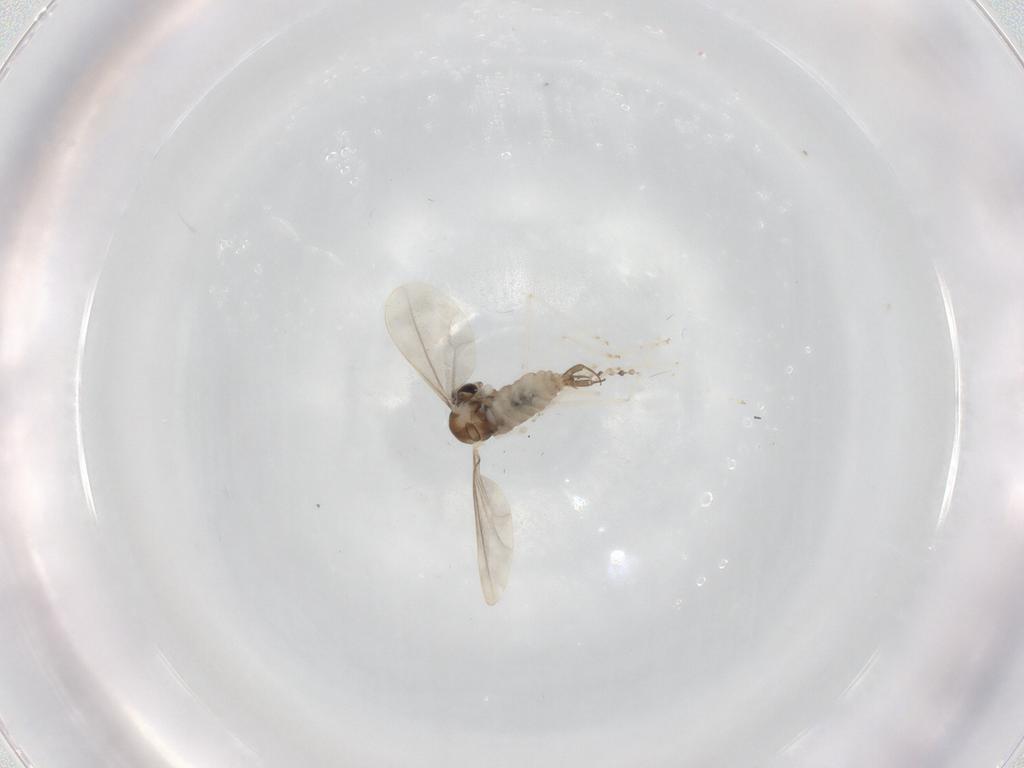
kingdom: Animalia
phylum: Arthropoda
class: Insecta
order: Diptera
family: Cecidomyiidae
